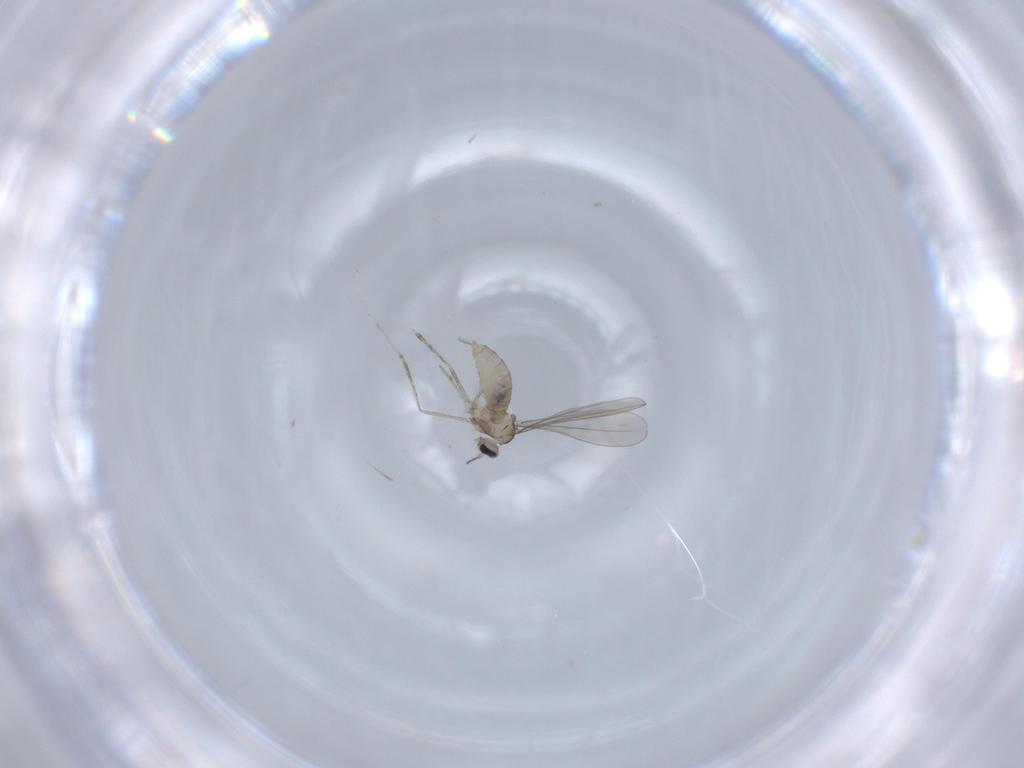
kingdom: Animalia
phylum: Arthropoda
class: Insecta
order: Diptera
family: Cecidomyiidae
